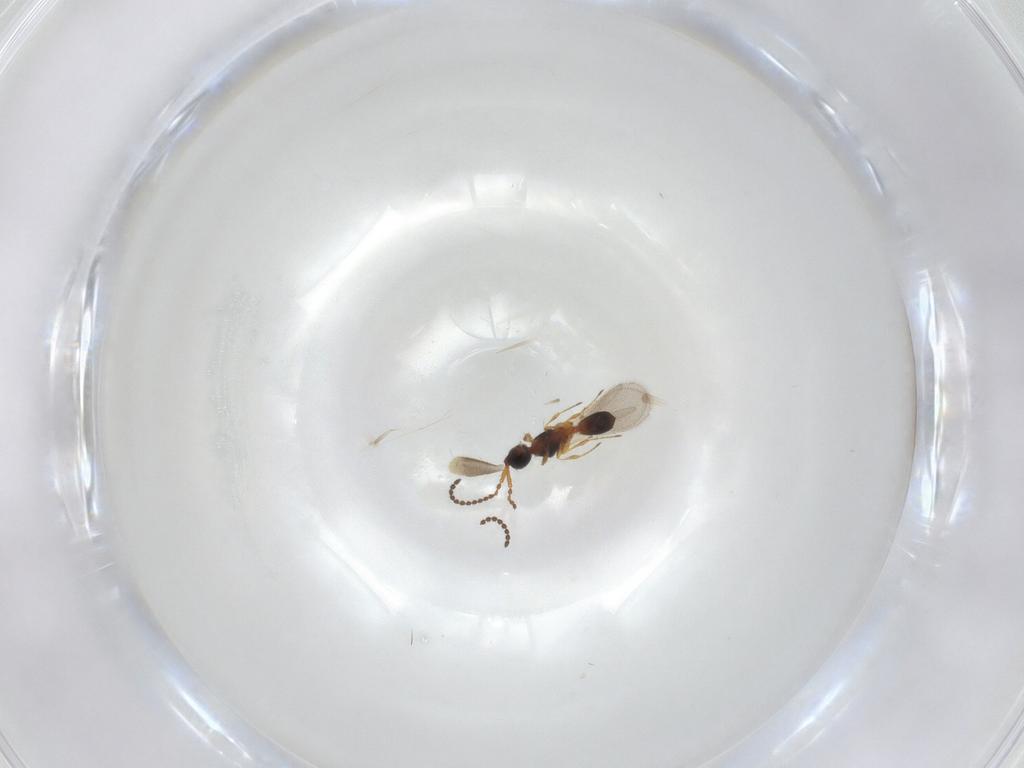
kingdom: Animalia
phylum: Arthropoda
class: Insecta
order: Hymenoptera
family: Diapriidae
